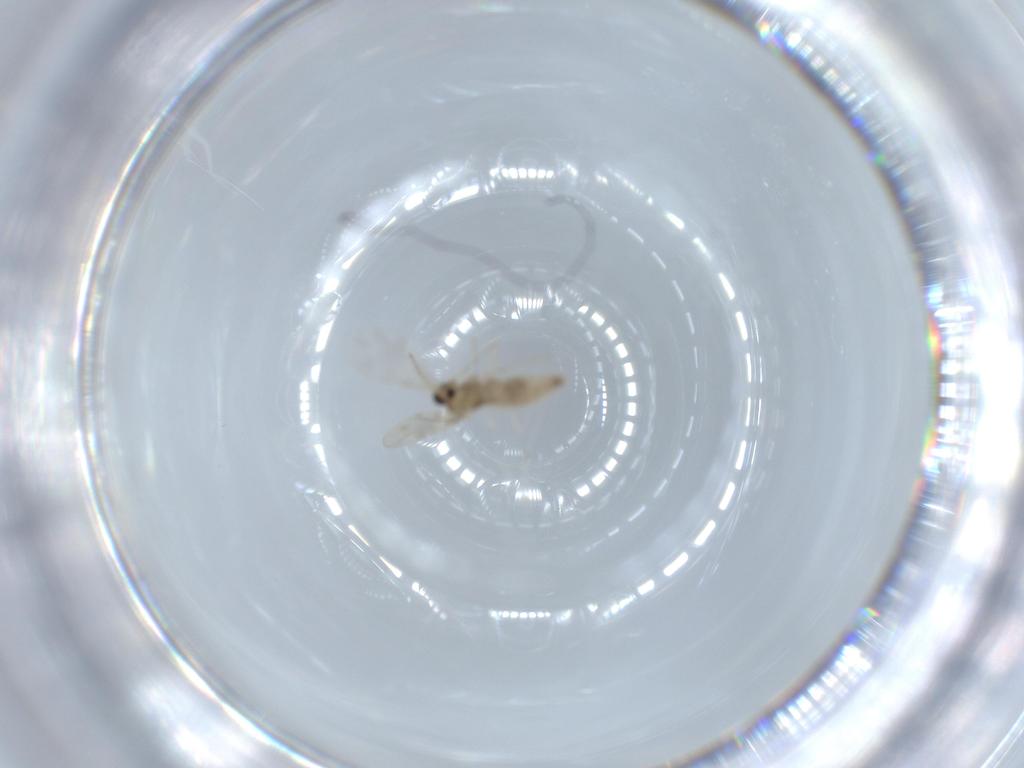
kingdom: Animalia
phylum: Arthropoda
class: Insecta
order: Diptera
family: Cecidomyiidae
